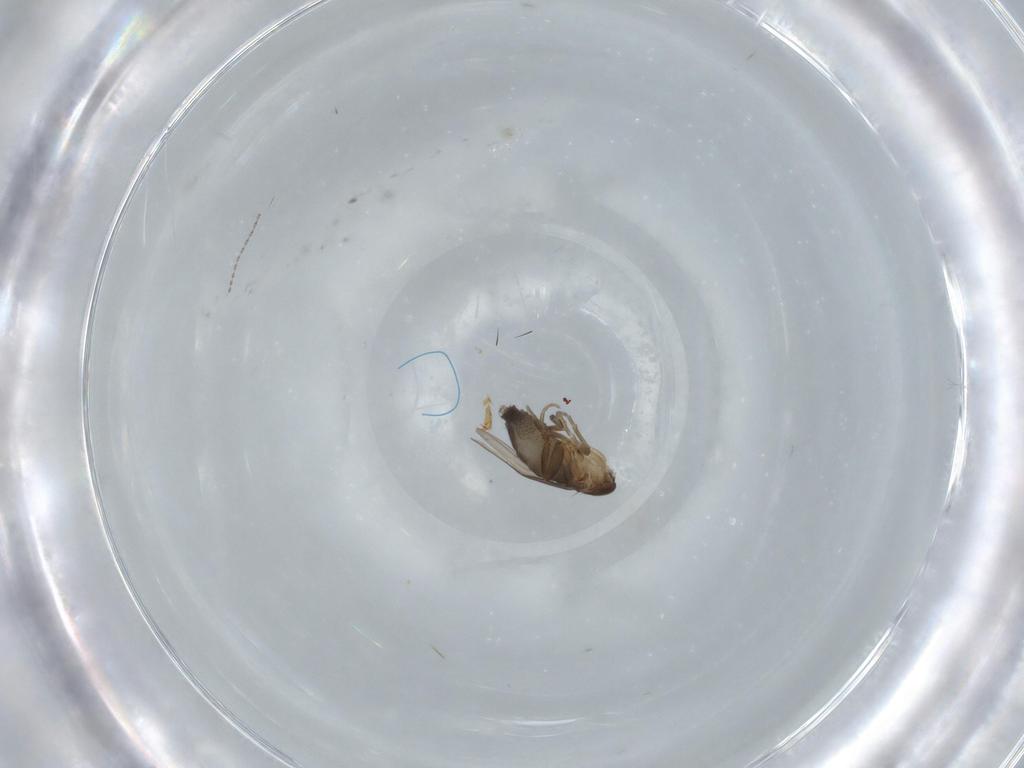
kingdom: Animalia
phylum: Arthropoda
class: Insecta
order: Diptera
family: Phoridae
